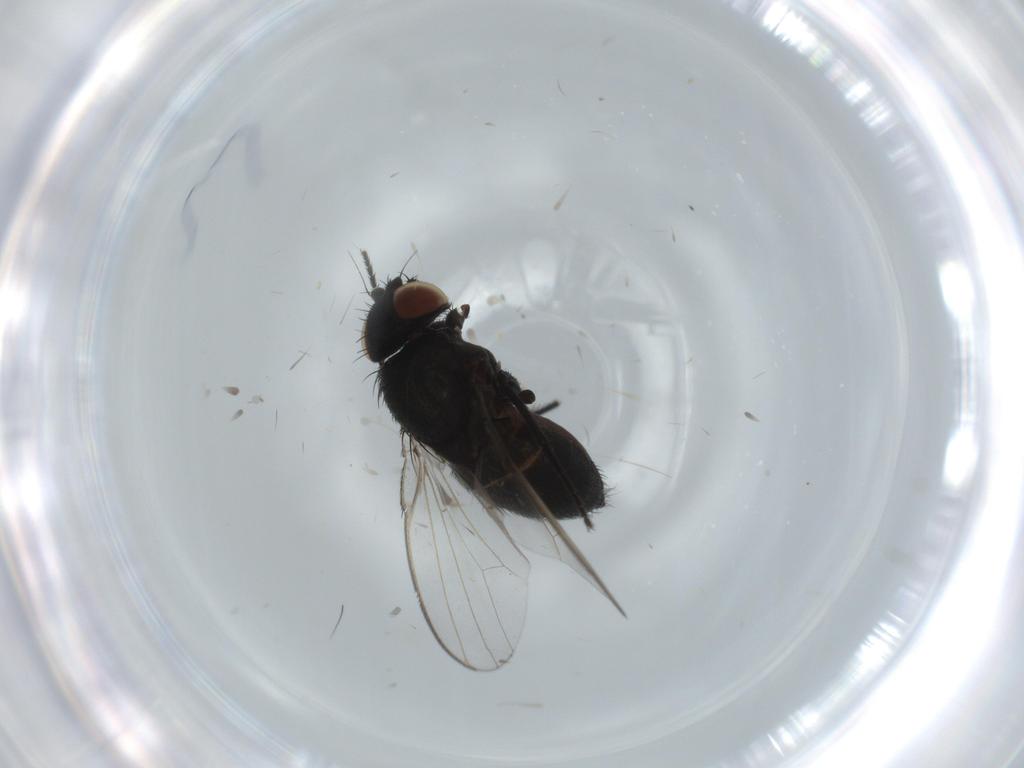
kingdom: Animalia
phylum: Arthropoda
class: Insecta
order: Diptera
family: Milichiidae
